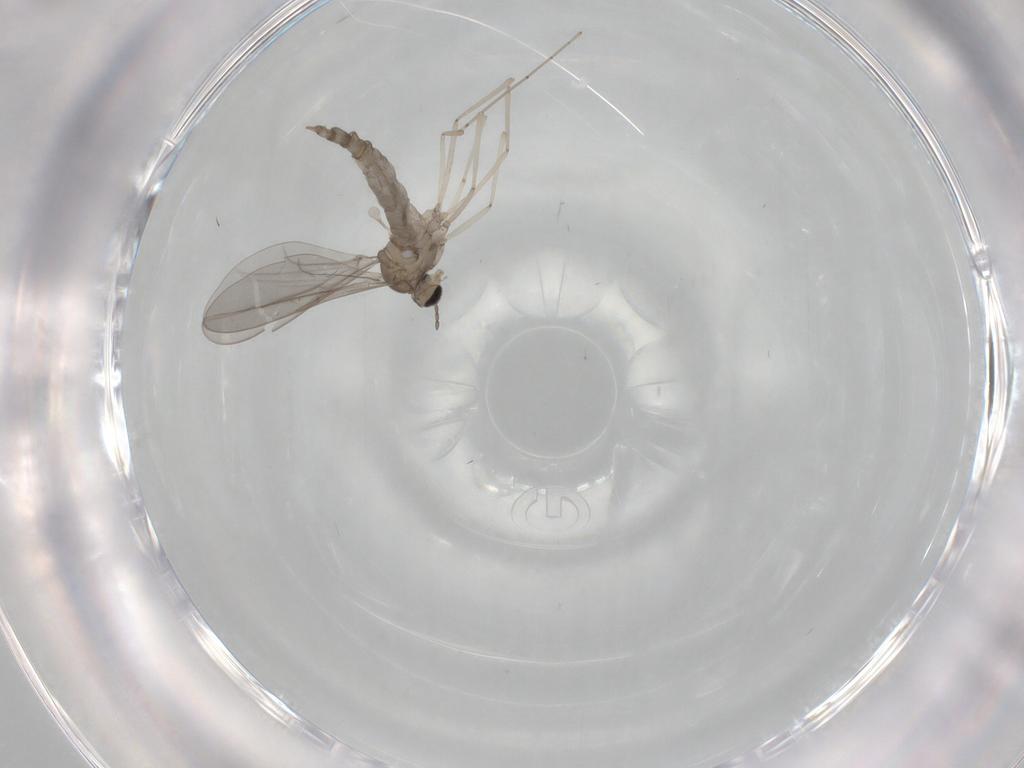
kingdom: Animalia
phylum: Arthropoda
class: Insecta
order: Diptera
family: Cecidomyiidae
